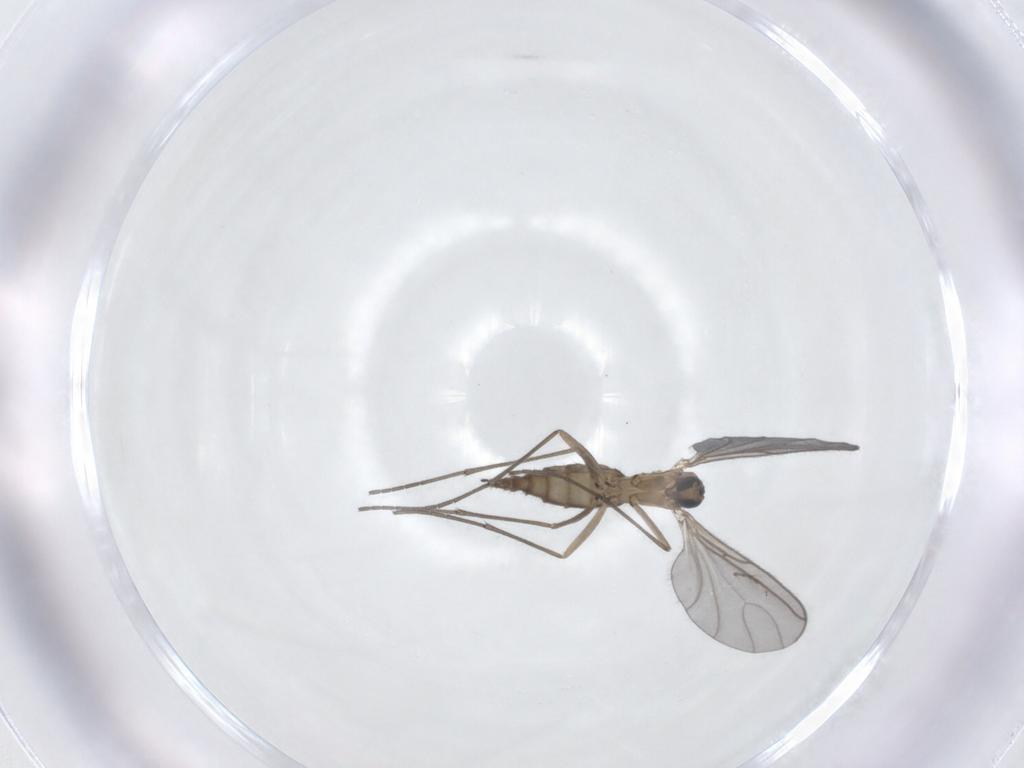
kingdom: Animalia
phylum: Arthropoda
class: Insecta
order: Diptera
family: Sciaridae
